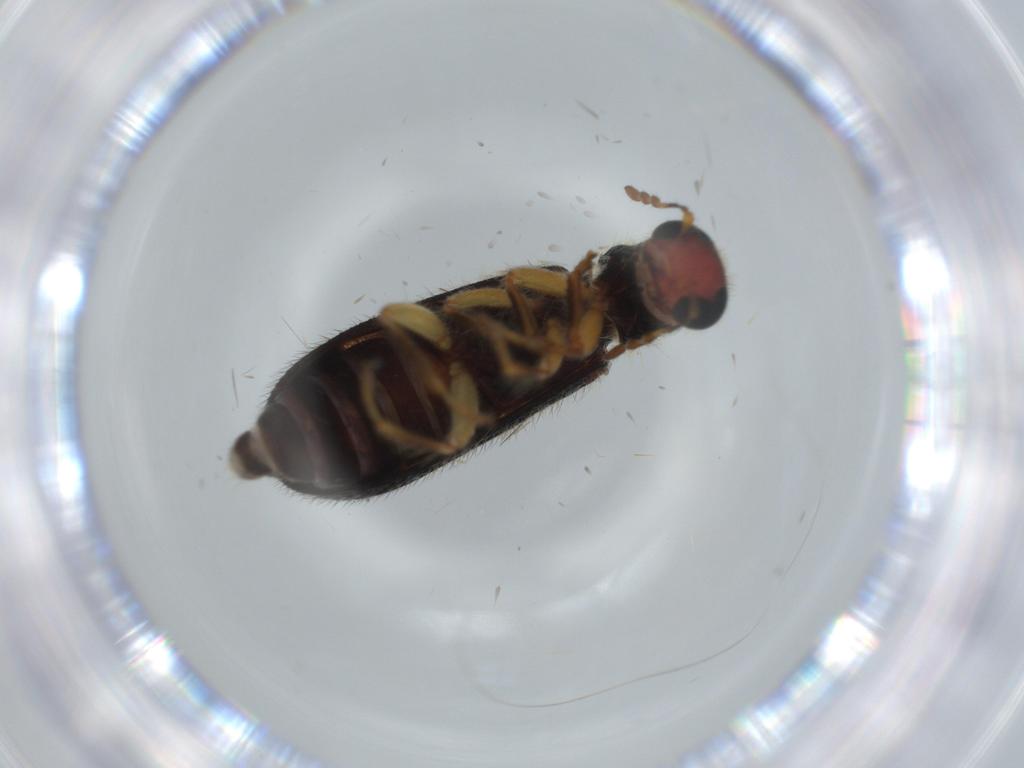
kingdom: Animalia
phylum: Arthropoda
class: Insecta
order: Coleoptera
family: Cleridae
